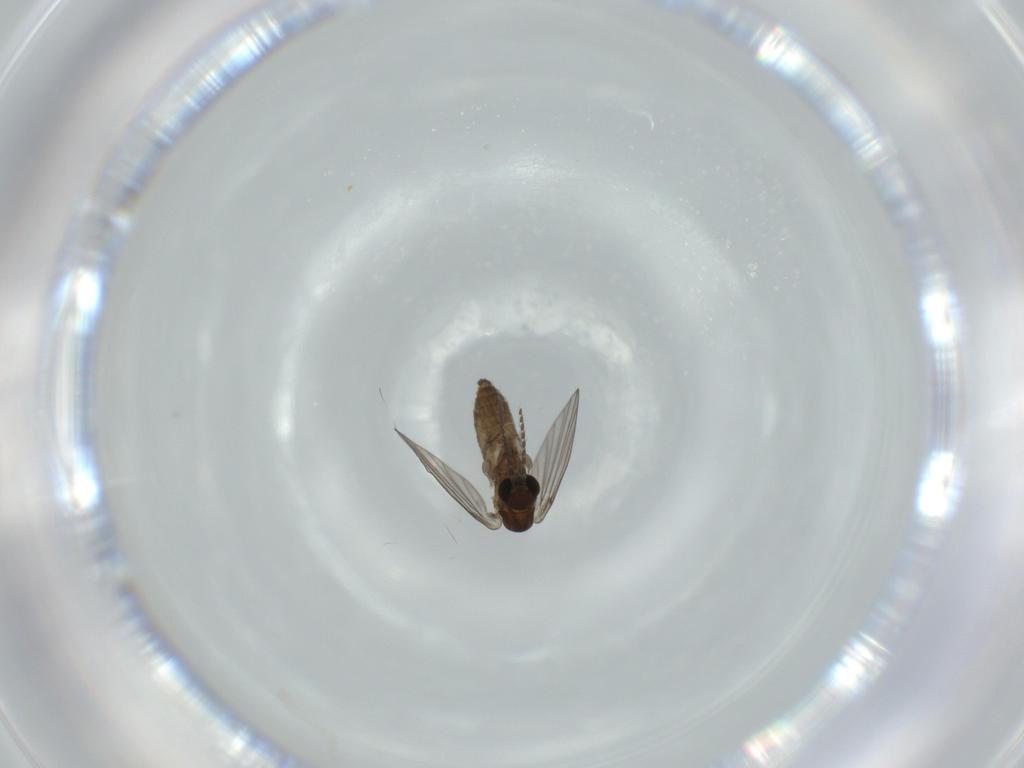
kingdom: Animalia
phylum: Arthropoda
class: Insecta
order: Diptera
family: Psychodidae
